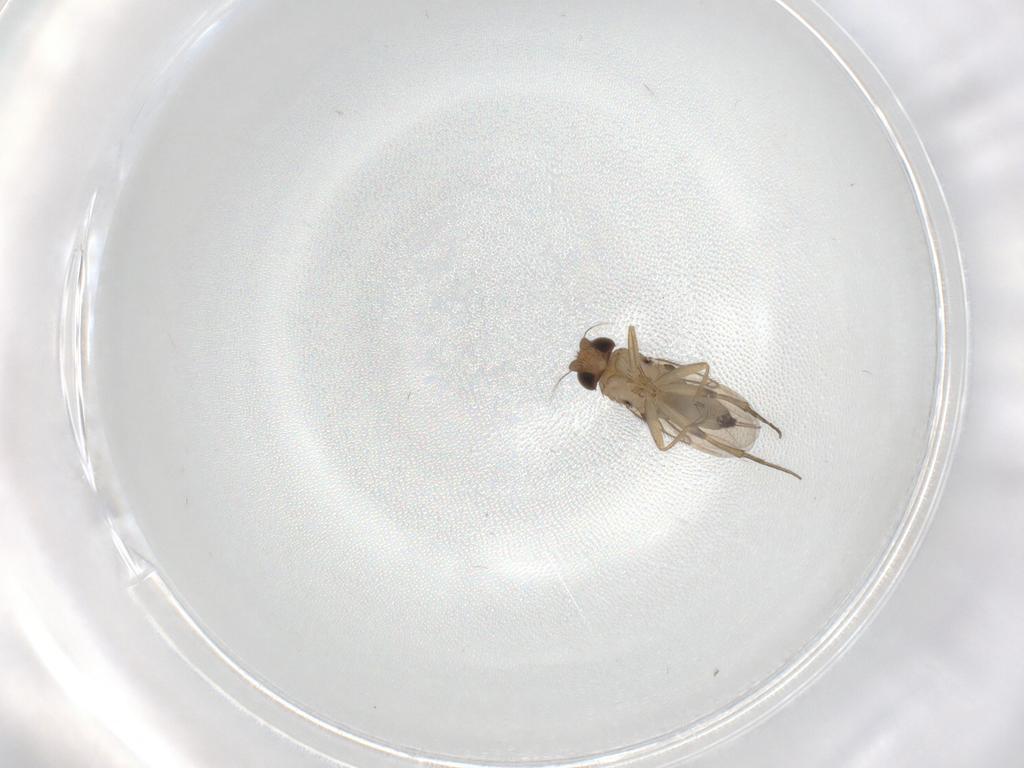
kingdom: Animalia
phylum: Arthropoda
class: Insecta
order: Diptera
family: Phoridae
